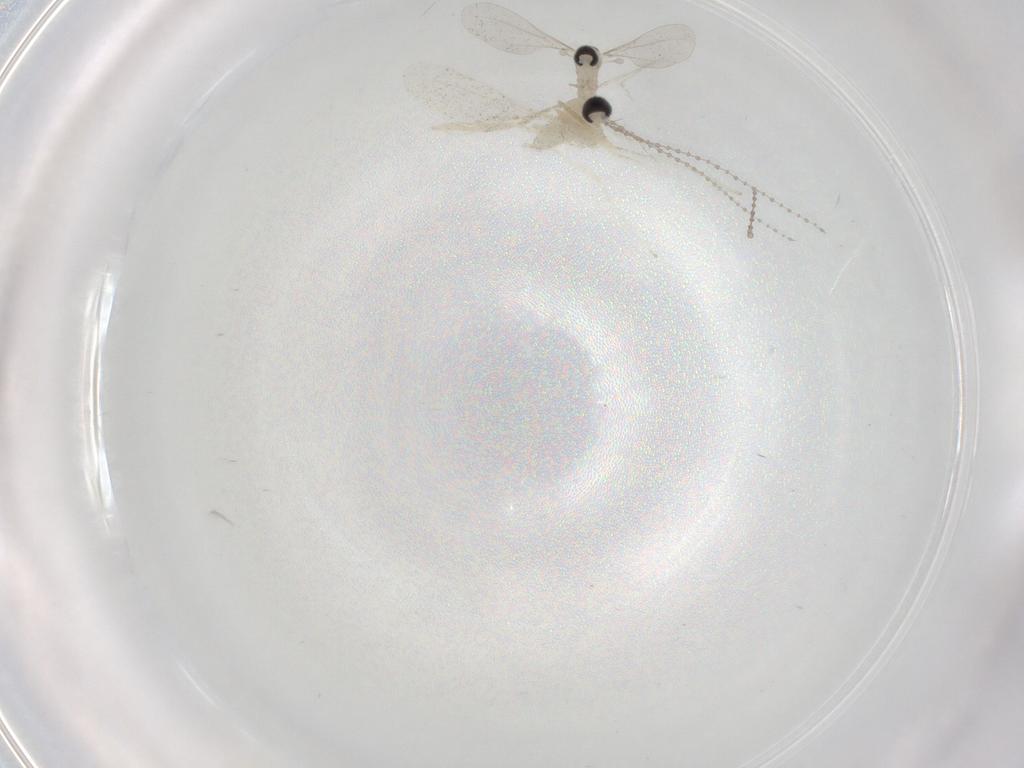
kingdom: Animalia
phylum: Arthropoda
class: Insecta
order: Diptera
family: Cecidomyiidae
